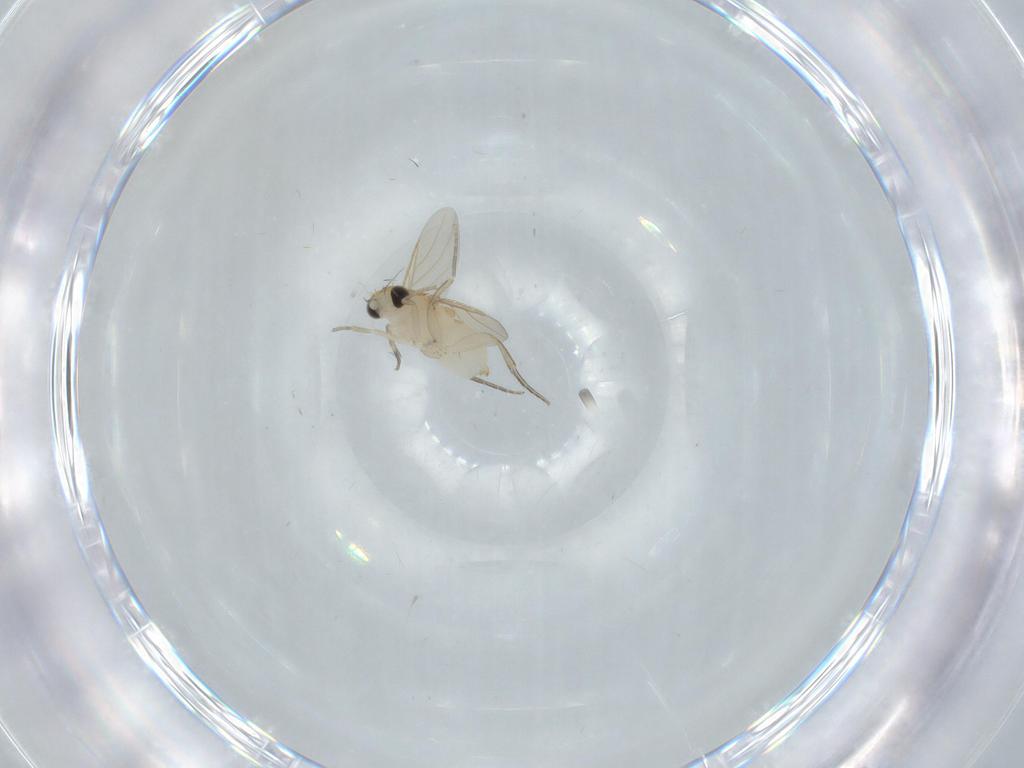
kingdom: Animalia
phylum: Arthropoda
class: Insecta
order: Diptera
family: Psychodidae
